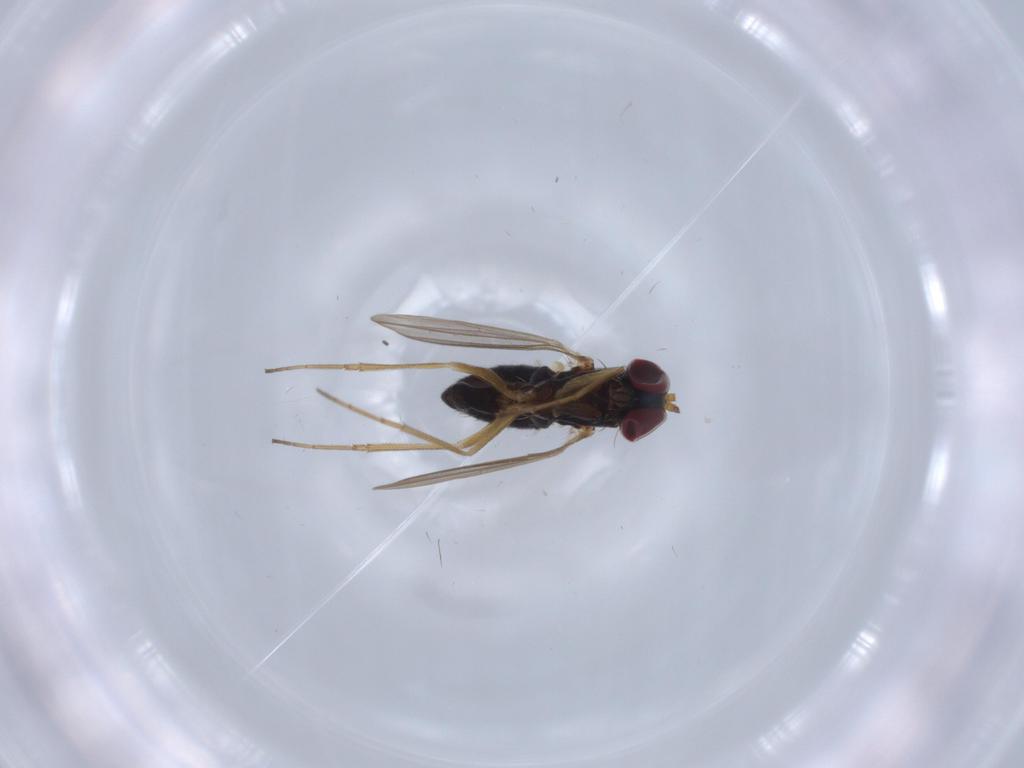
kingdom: Animalia
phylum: Arthropoda
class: Insecta
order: Diptera
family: Dolichopodidae
